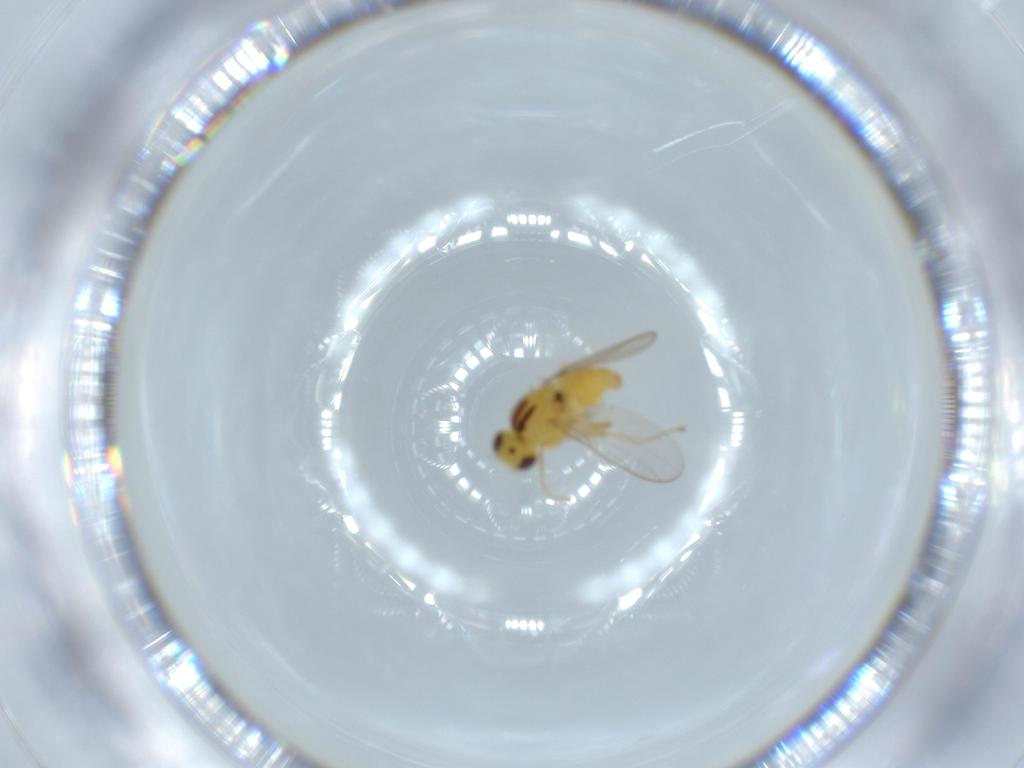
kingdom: Animalia
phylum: Arthropoda
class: Insecta
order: Diptera
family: Chloropidae
